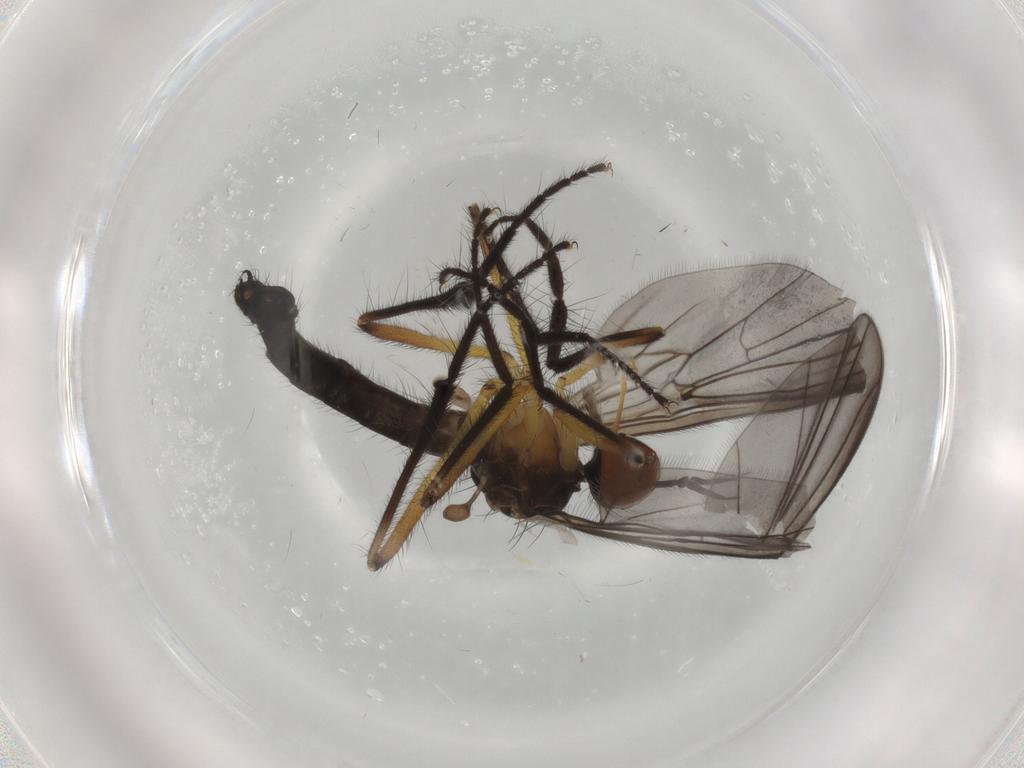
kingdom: Animalia
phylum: Arthropoda
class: Insecta
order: Diptera
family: Empididae
